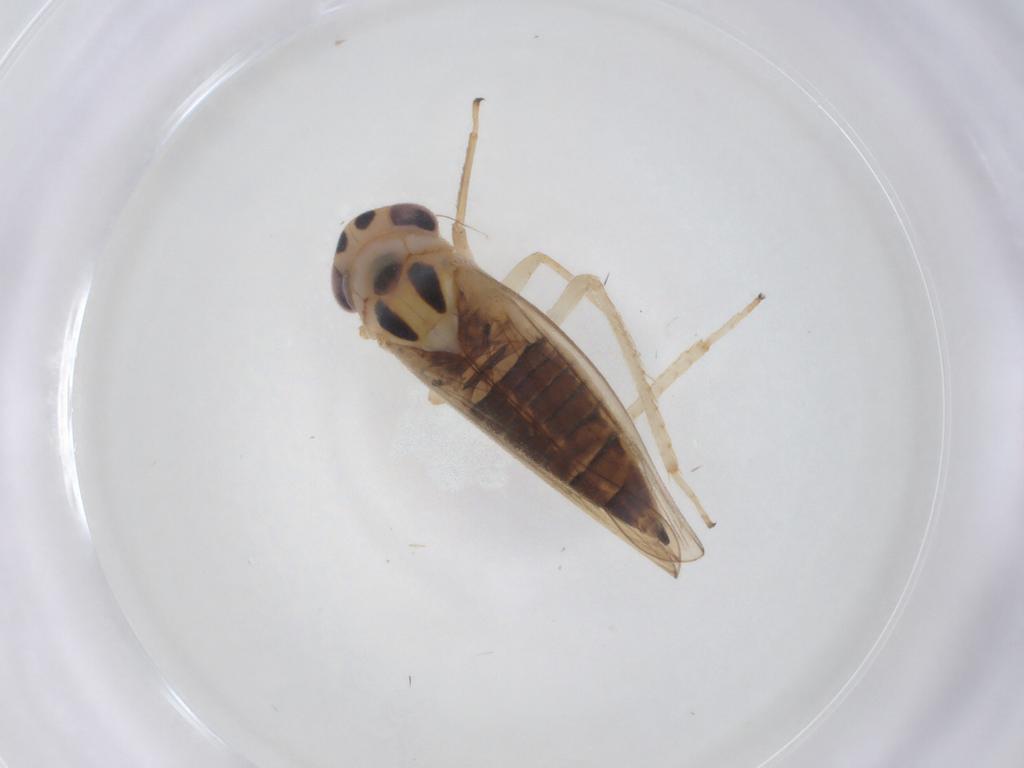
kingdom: Animalia
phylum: Arthropoda
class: Insecta
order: Hemiptera
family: Cicadellidae
